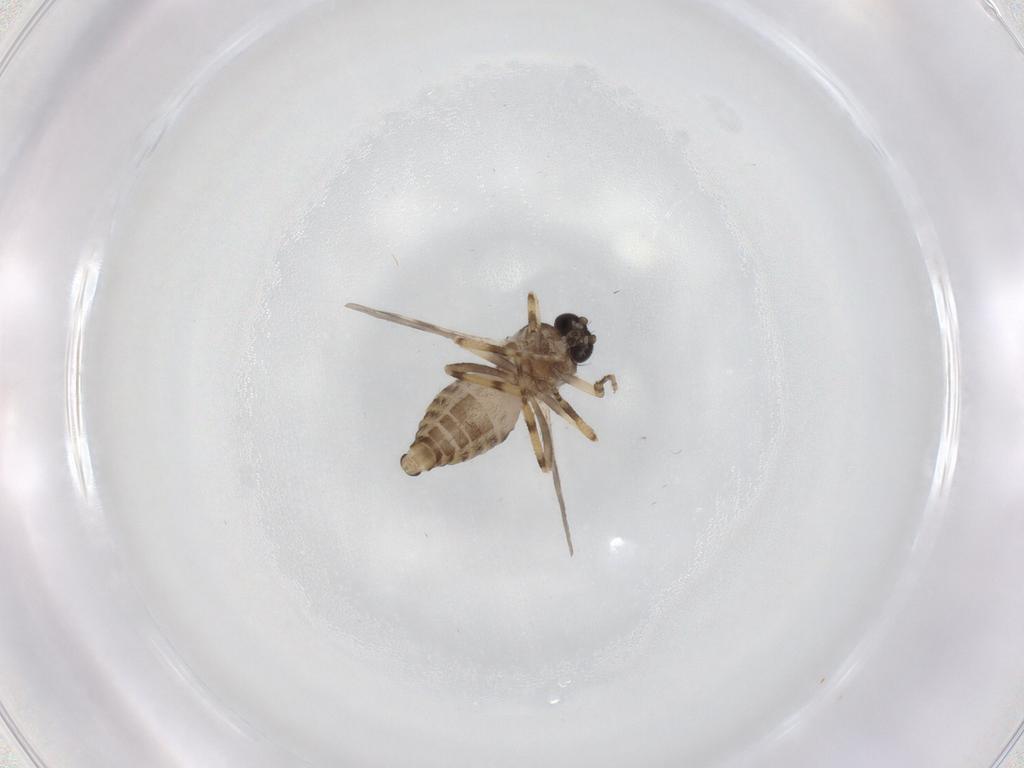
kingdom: Animalia
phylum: Arthropoda
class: Insecta
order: Diptera
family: Ceratopogonidae
